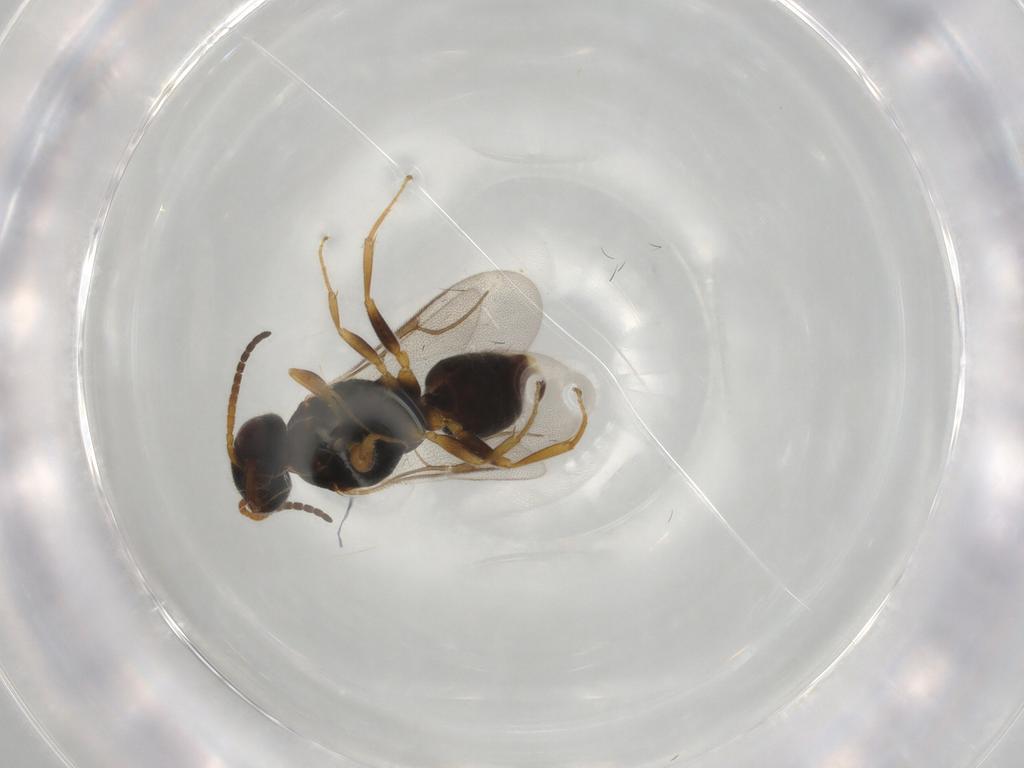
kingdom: Animalia
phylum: Arthropoda
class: Insecta
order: Hymenoptera
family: Bethylidae
